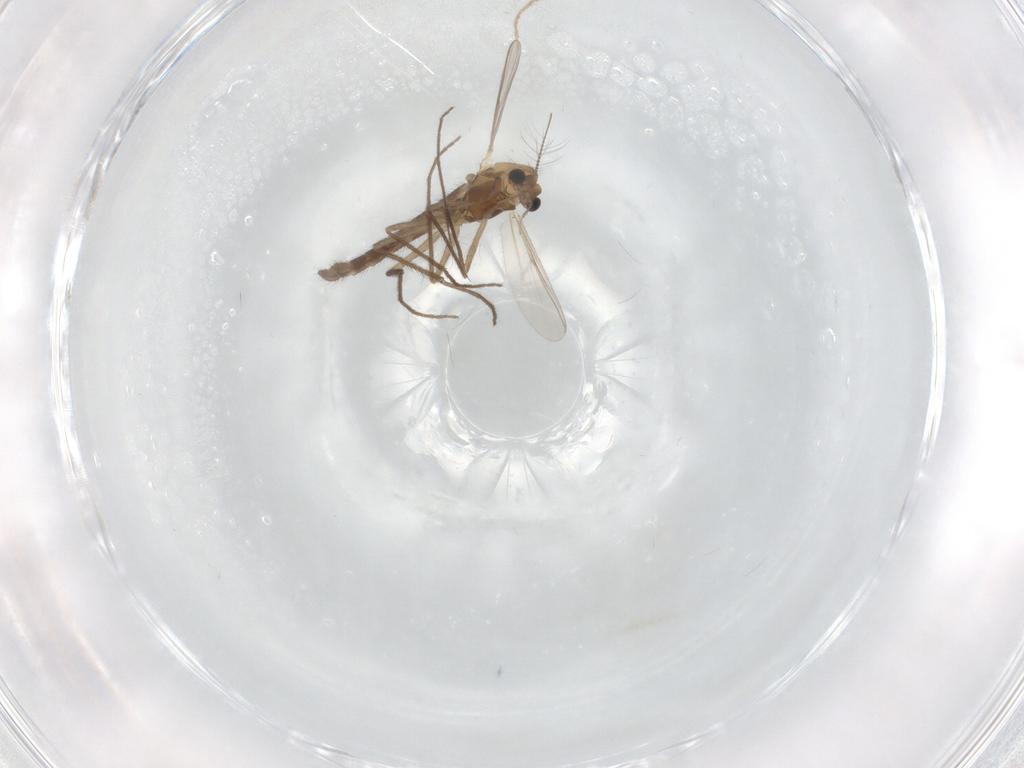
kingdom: Animalia
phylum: Arthropoda
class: Insecta
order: Diptera
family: Chironomidae
